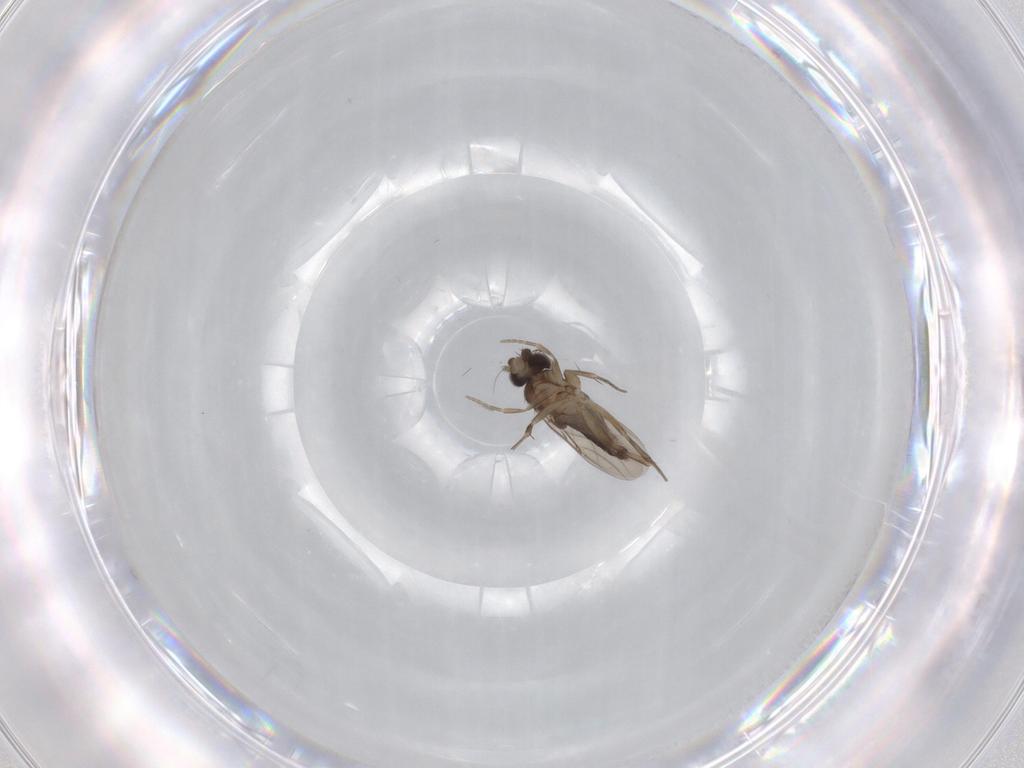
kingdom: Animalia
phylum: Arthropoda
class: Insecta
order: Diptera
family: Phoridae
